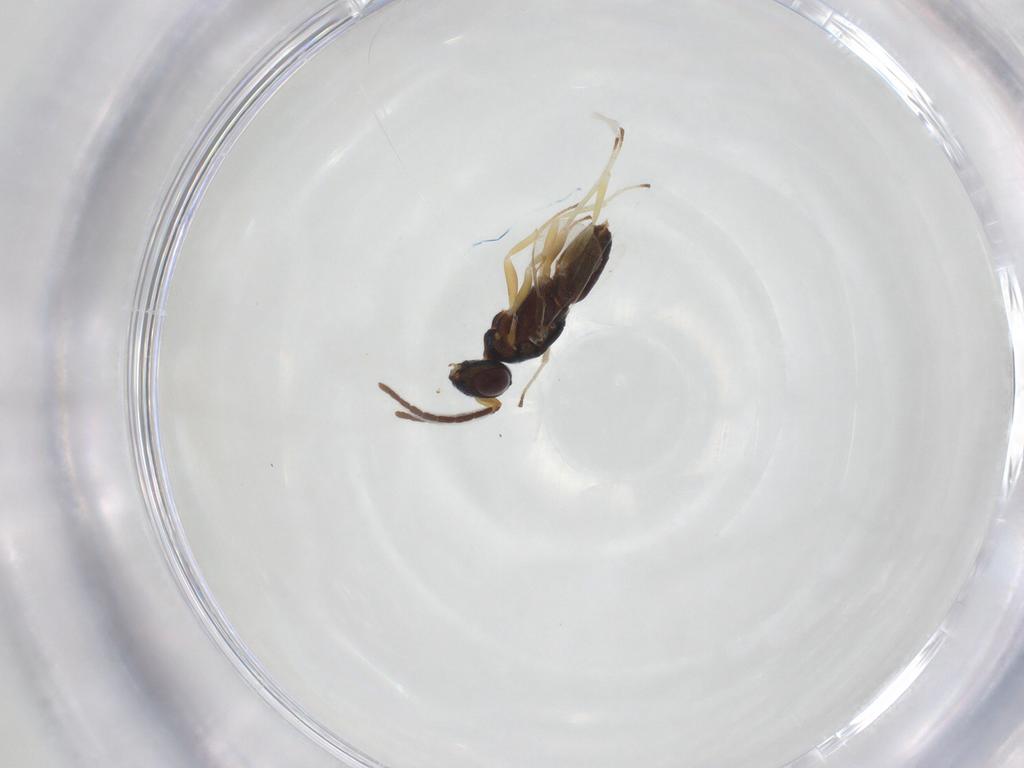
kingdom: Animalia
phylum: Arthropoda
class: Insecta
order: Hymenoptera
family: Eupelmidae
